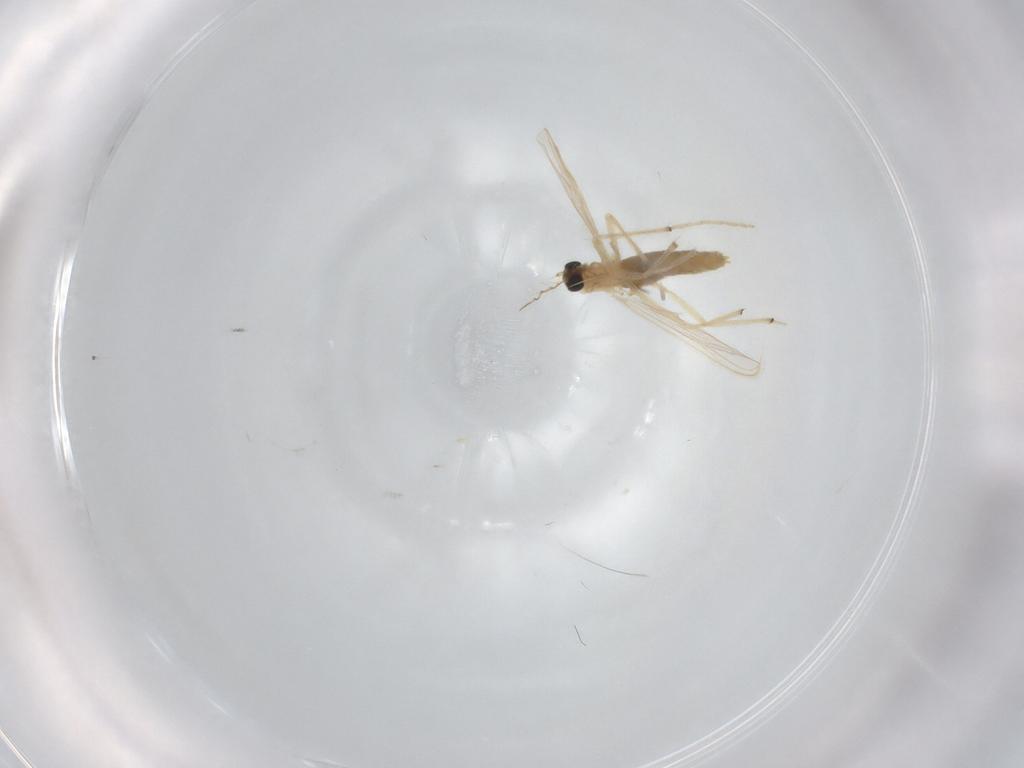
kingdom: Animalia
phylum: Arthropoda
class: Insecta
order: Diptera
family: Chironomidae
